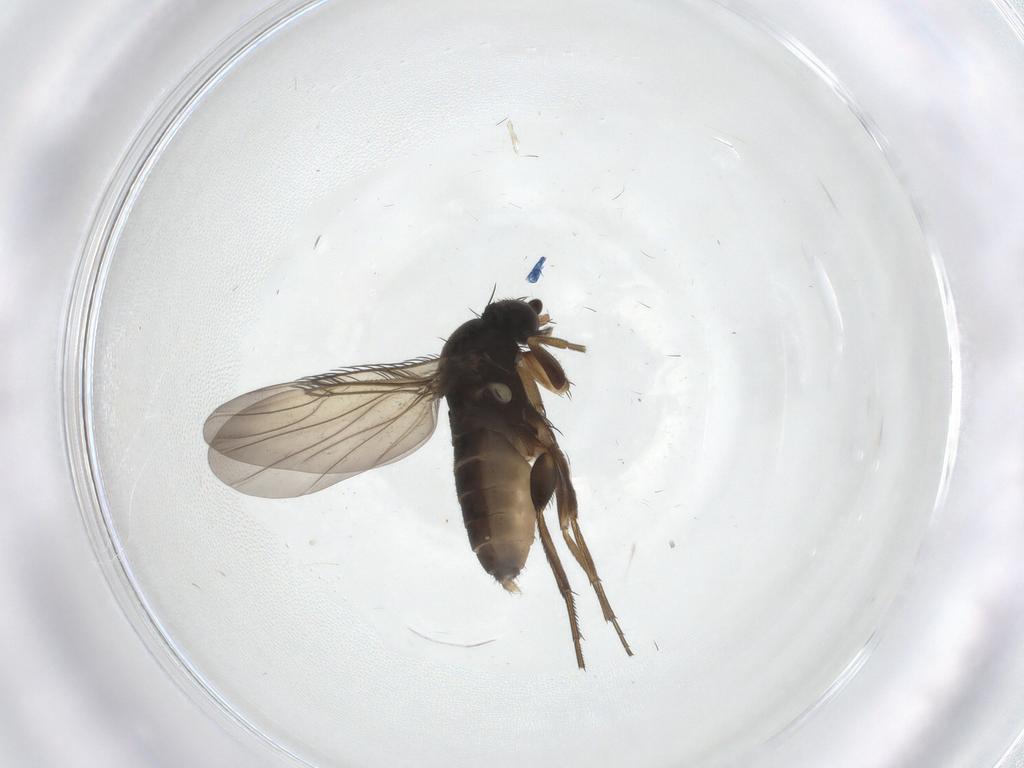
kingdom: Animalia
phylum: Arthropoda
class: Insecta
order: Diptera
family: Phoridae
